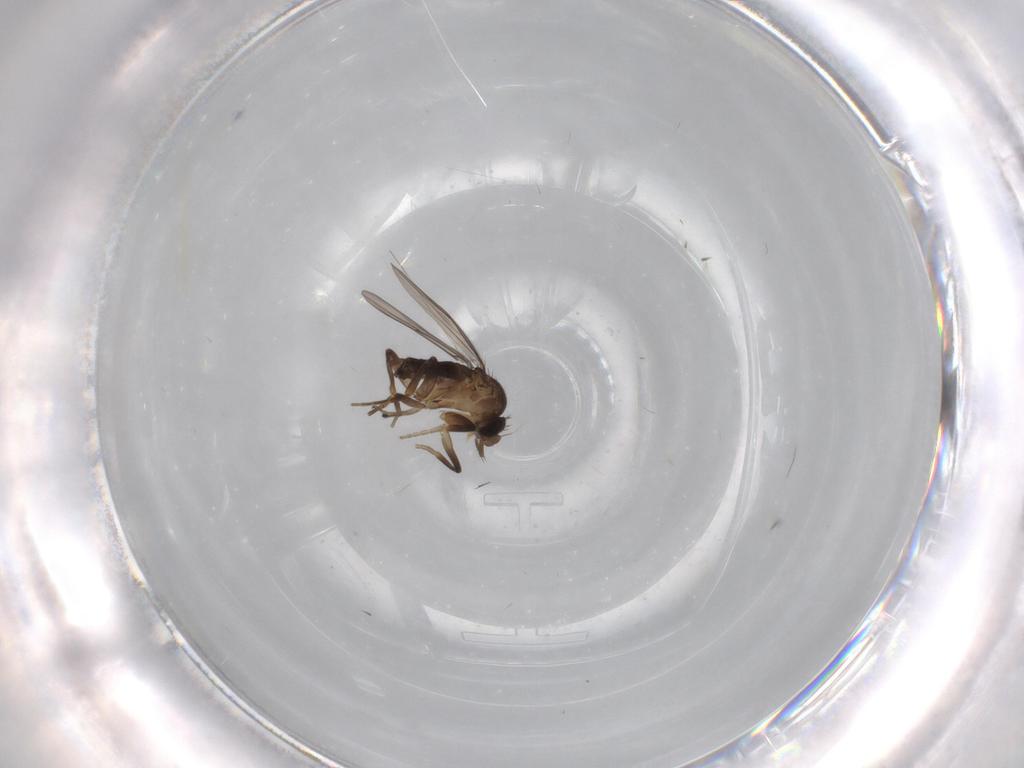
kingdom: Animalia
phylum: Arthropoda
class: Insecta
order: Diptera
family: Phoridae
